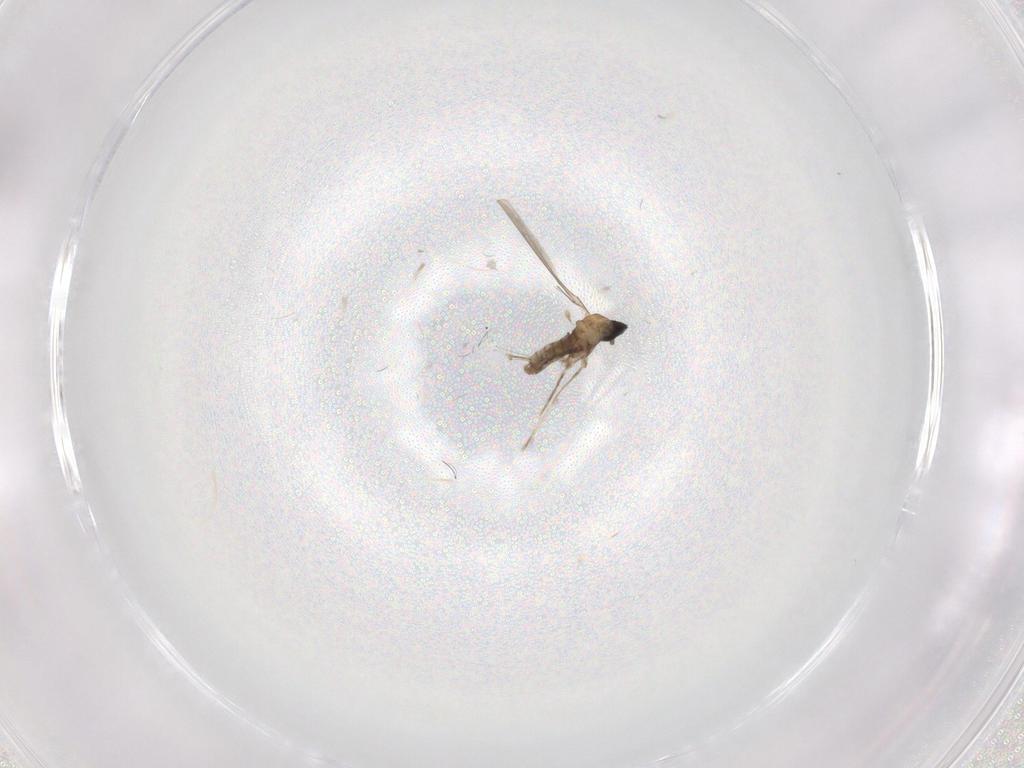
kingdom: Animalia
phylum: Arthropoda
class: Insecta
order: Diptera
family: Cecidomyiidae
